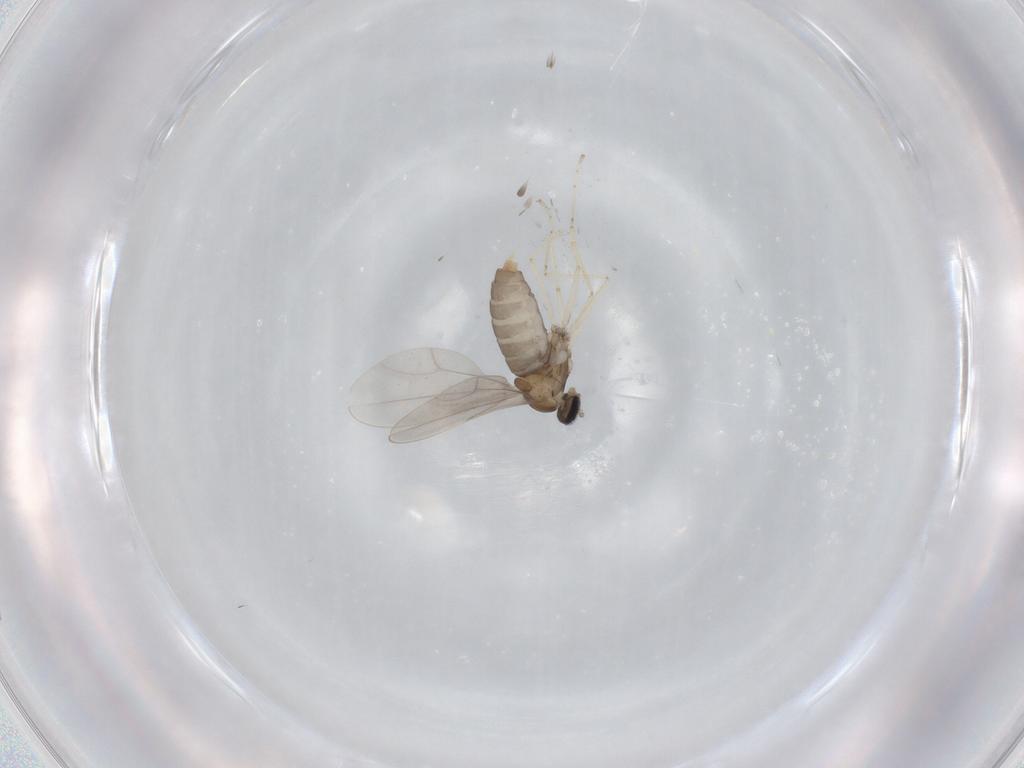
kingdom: Animalia
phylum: Arthropoda
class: Insecta
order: Diptera
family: Cecidomyiidae
